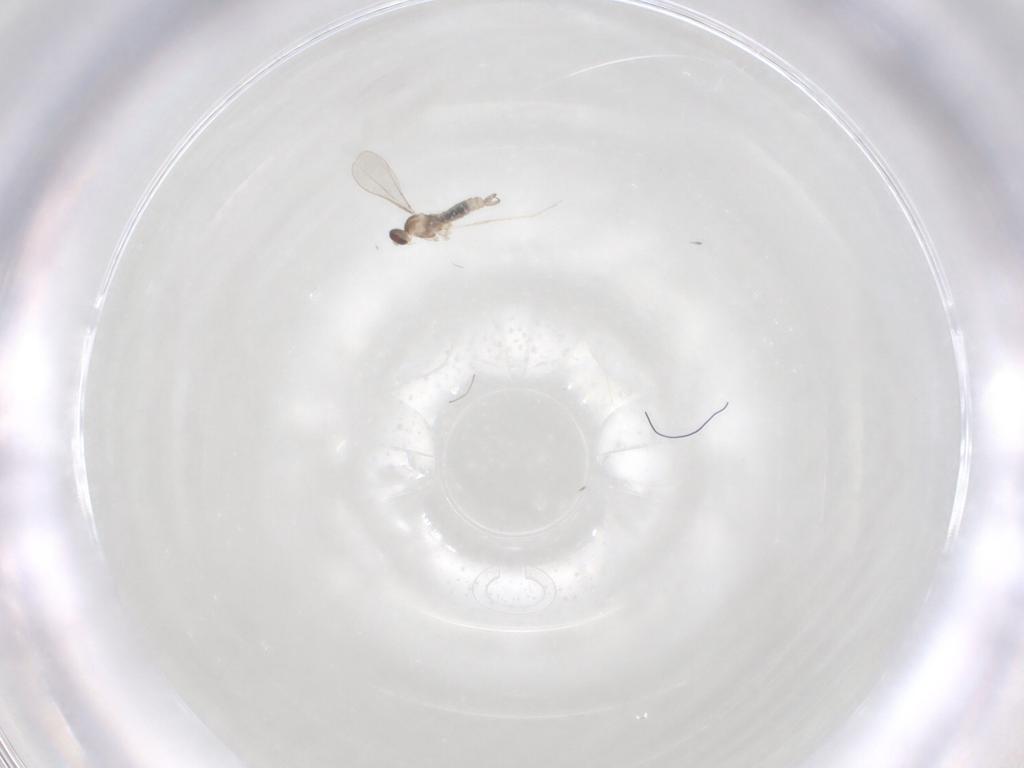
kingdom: Animalia
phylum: Arthropoda
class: Insecta
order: Diptera
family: Cecidomyiidae
